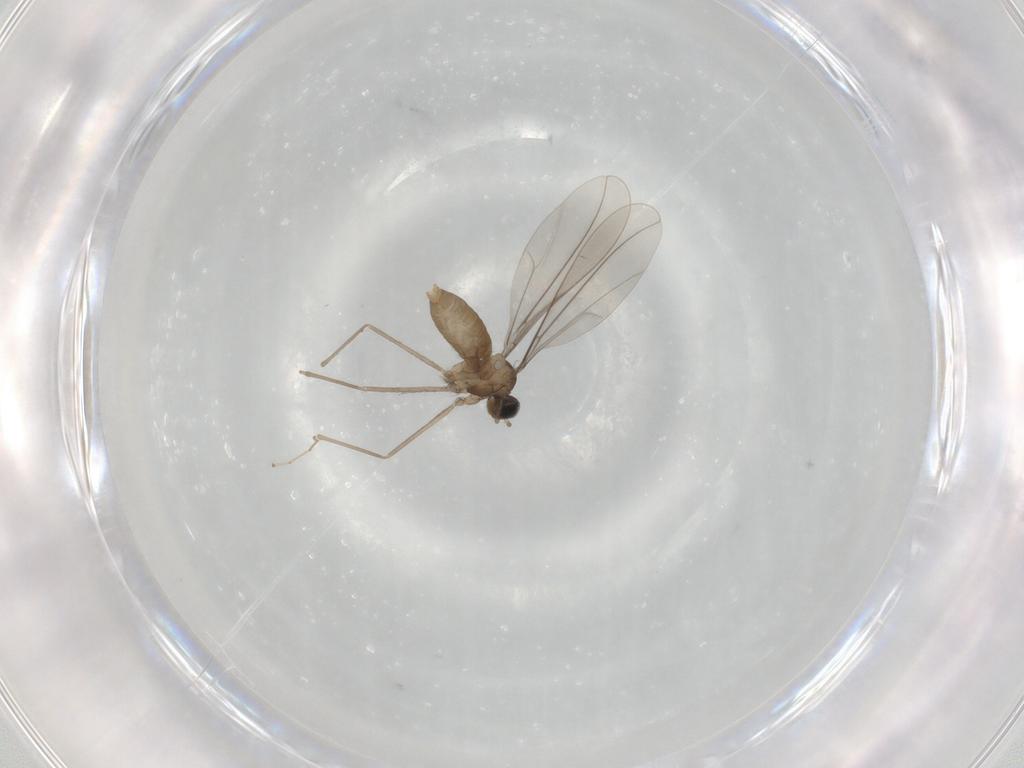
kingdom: Animalia
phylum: Arthropoda
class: Insecta
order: Diptera
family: Cecidomyiidae
